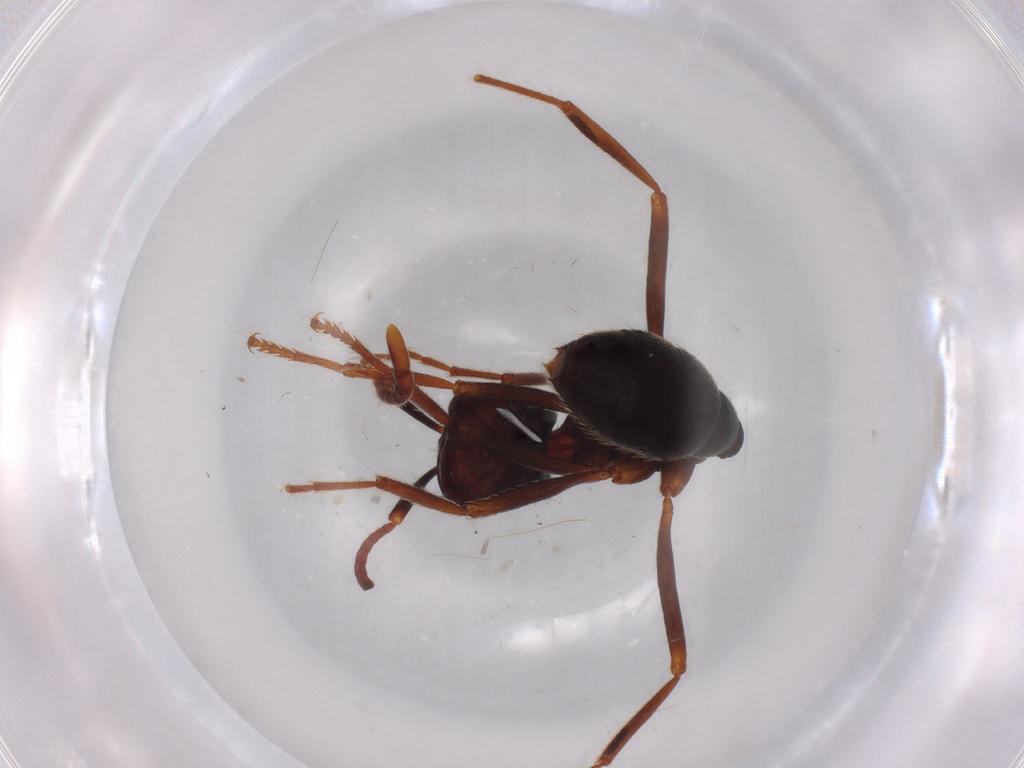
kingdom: Animalia
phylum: Arthropoda
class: Insecta
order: Hymenoptera
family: Formicidae
